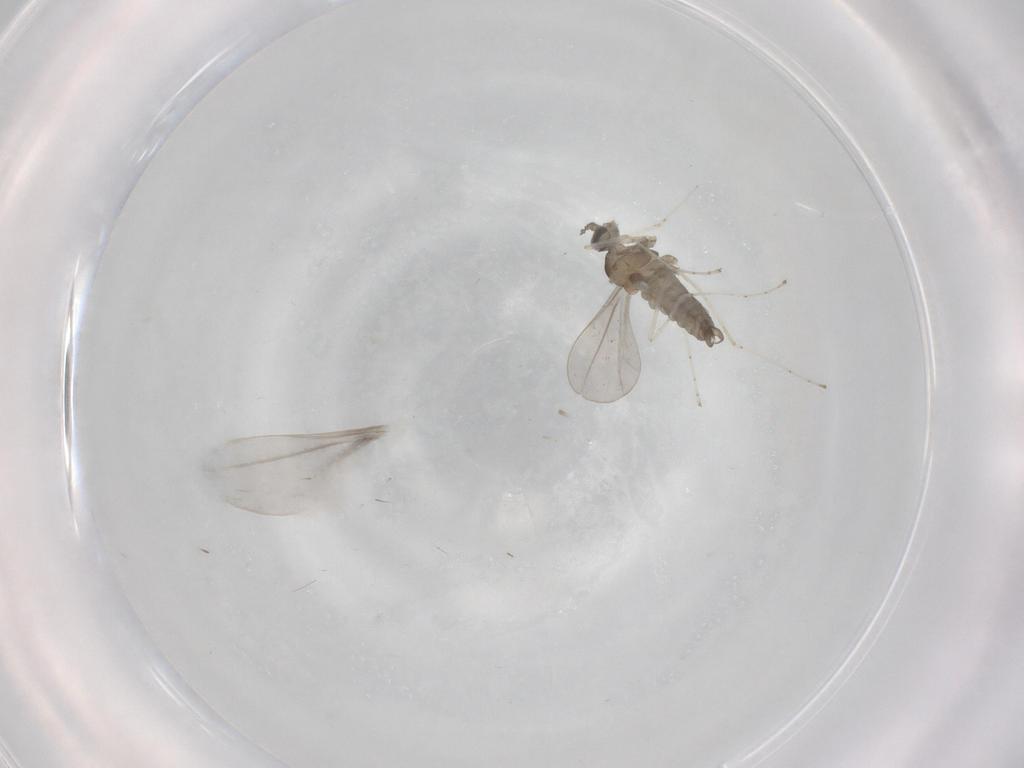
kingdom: Animalia
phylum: Arthropoda
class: Insecta
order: Diptera
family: Cecidomyiidae
